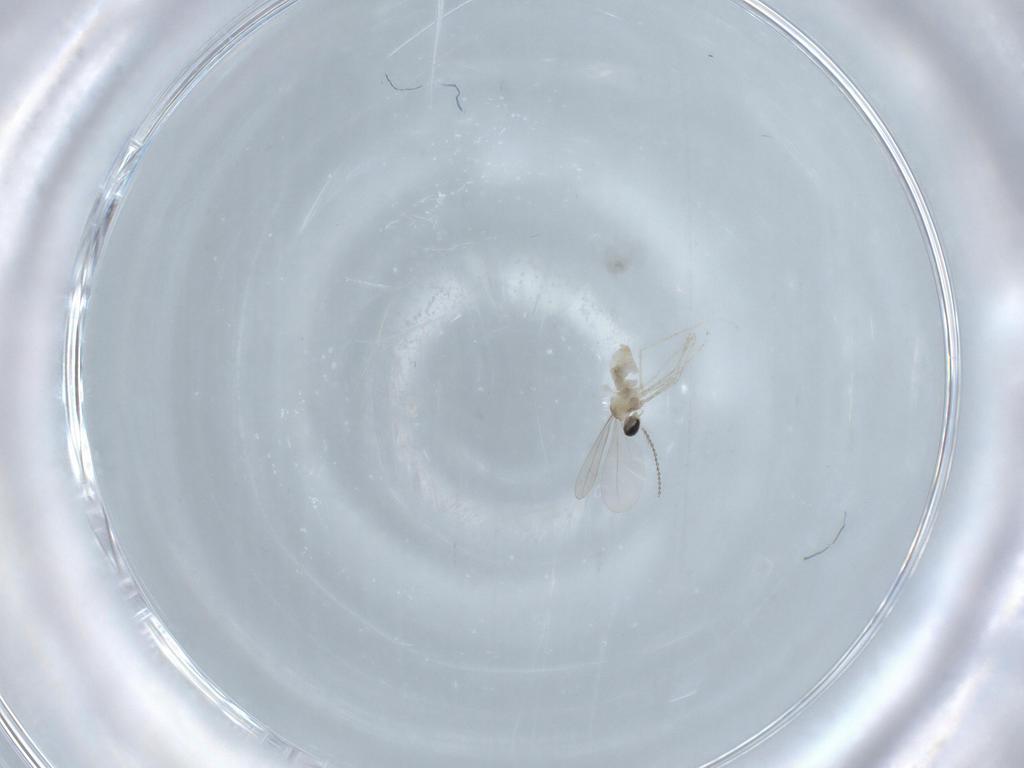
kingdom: Animalia
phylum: Arthropoda
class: Insecta
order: Diptera
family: Cecidomyiidae
